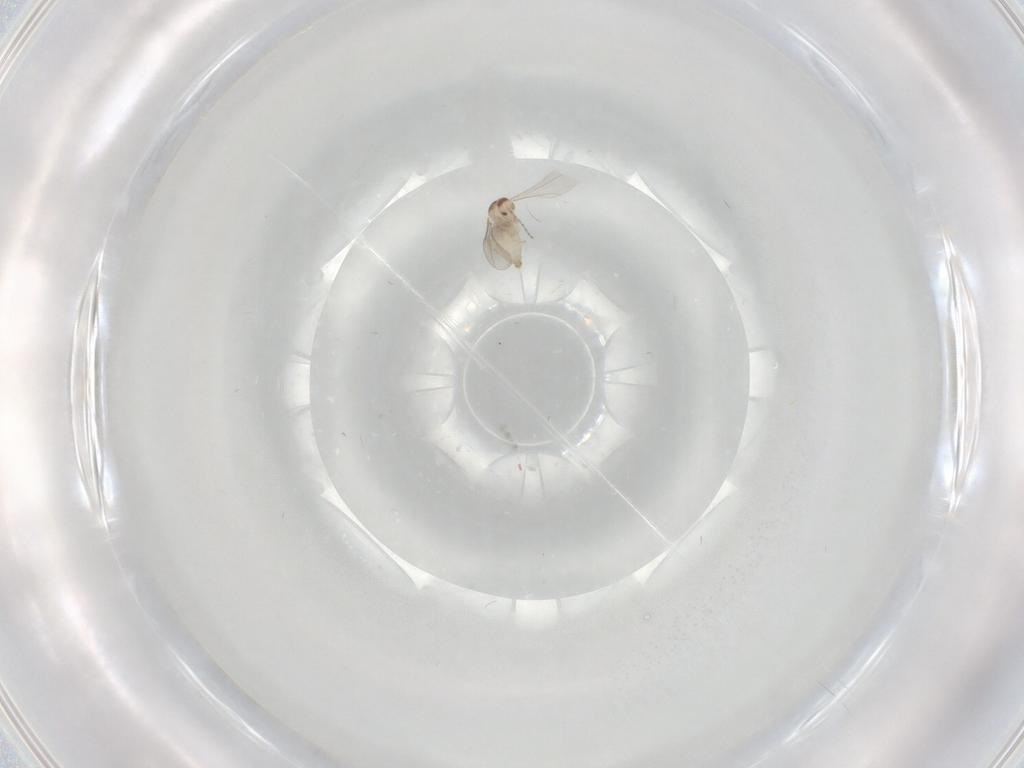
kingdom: Animalia
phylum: Arthropoda
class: Insecta
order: Diptera
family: Cecidomyiidae
